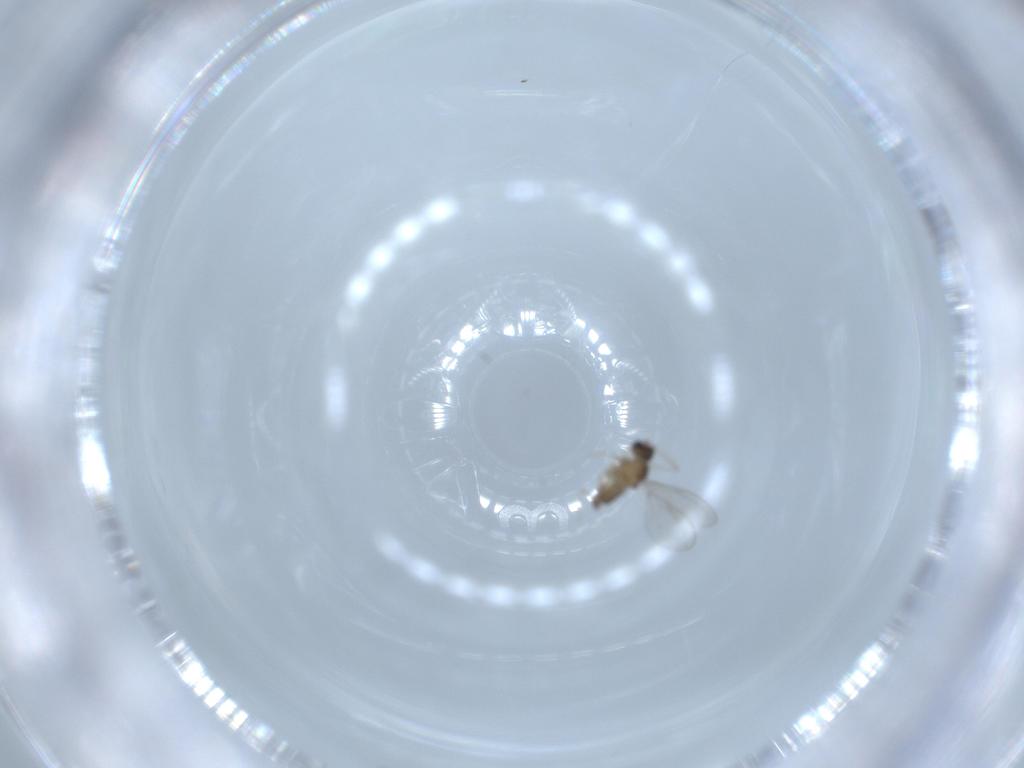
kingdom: Animalia
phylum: Arthropoda
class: Insecta
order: Diptera
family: Cecidomyiidae
